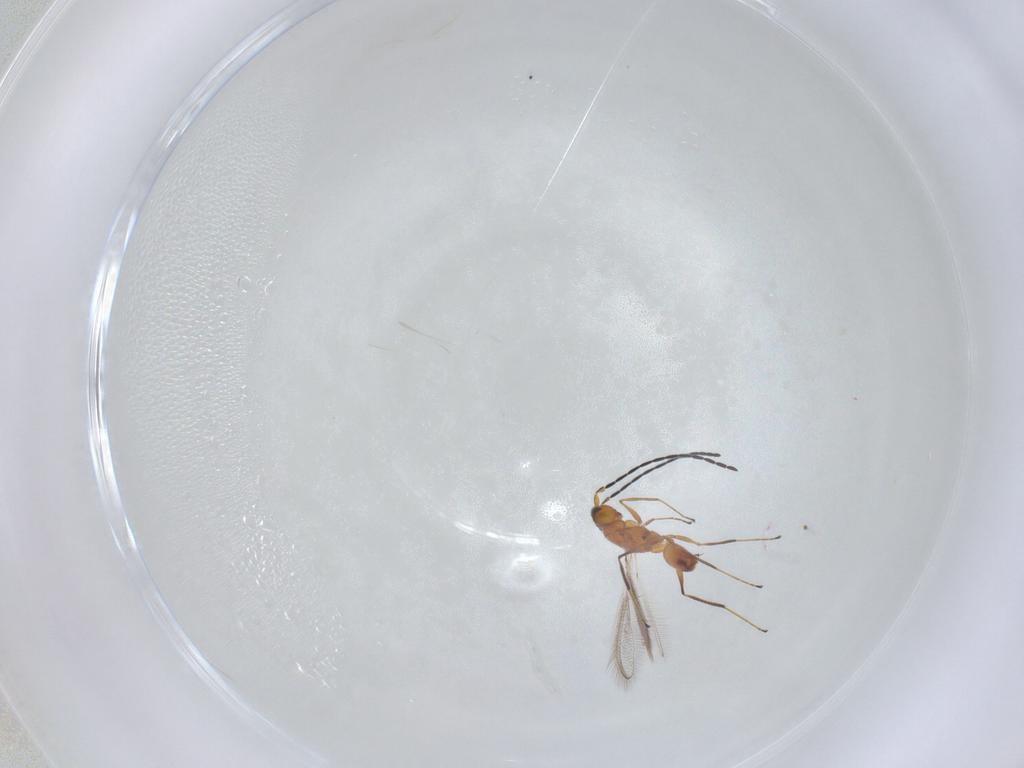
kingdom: Animalia
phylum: Arthropoda
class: Insecta
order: Hymenoptera
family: Mymaridae
